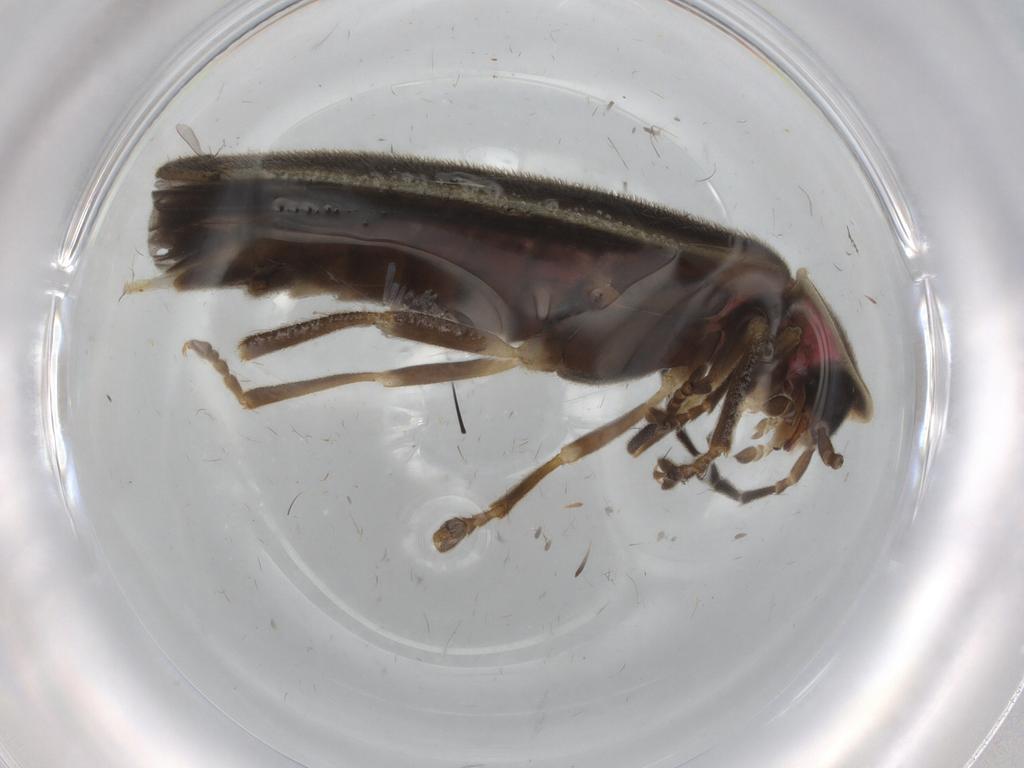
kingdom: Animalia
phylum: Arthropoda
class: Insecta
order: Coleoptera
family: Lampyridae
